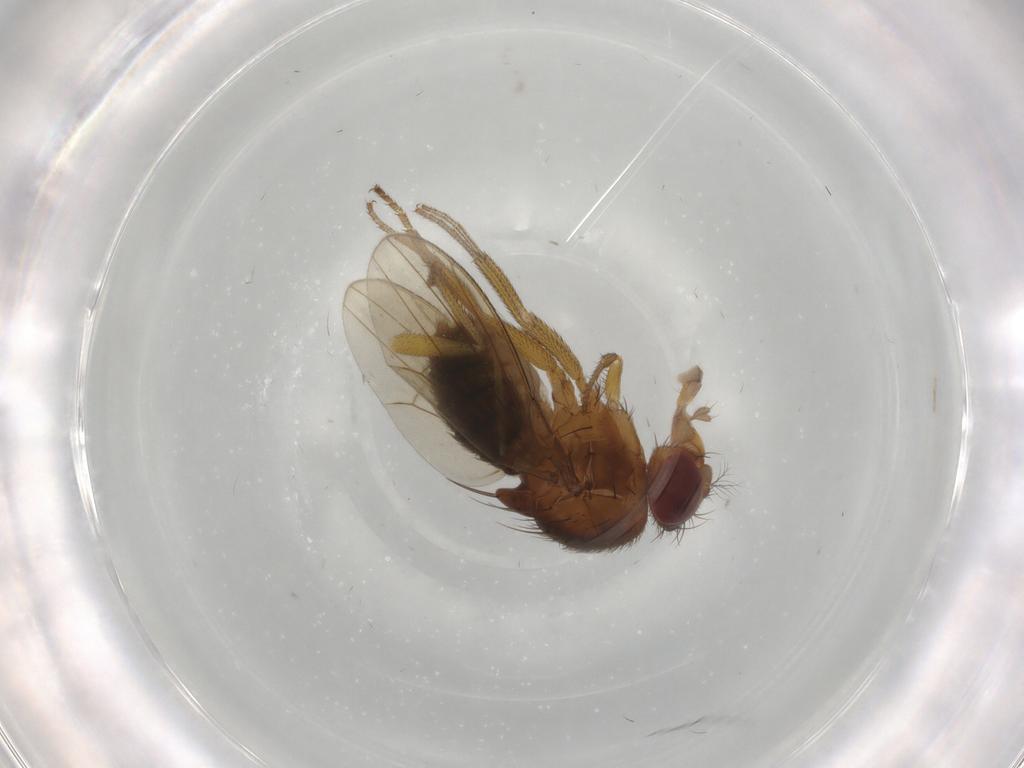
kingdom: Animalia
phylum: Arthropoda
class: Insecta
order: Diptera
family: Drosophilidae
